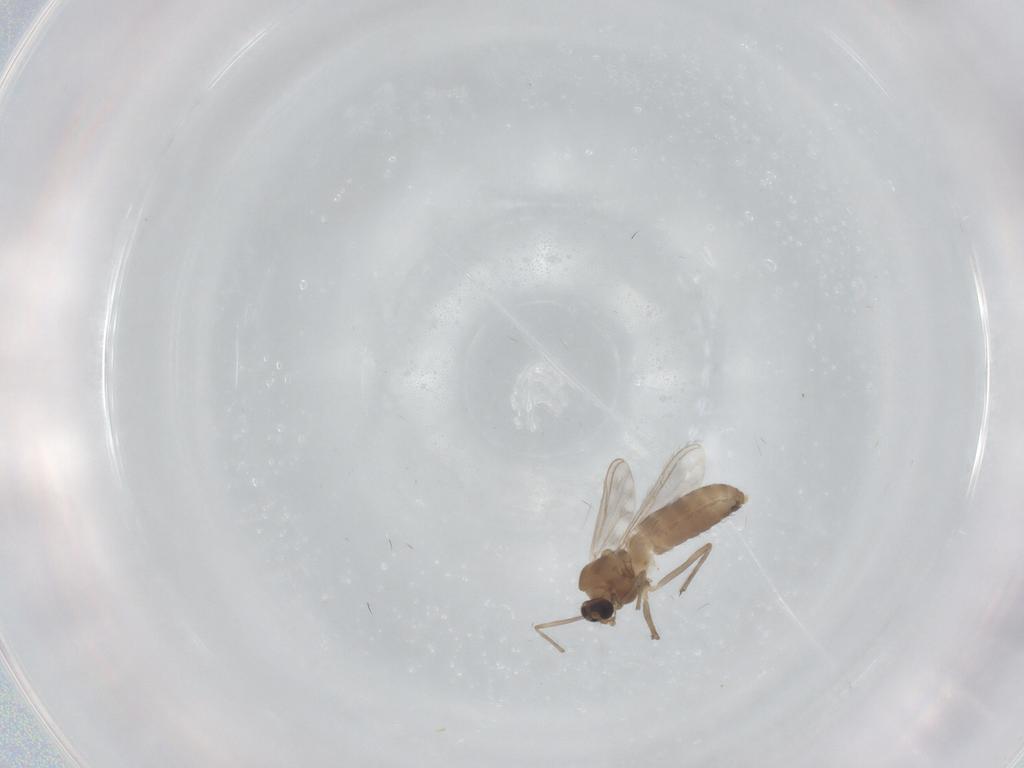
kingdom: Animalia
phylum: Arthropoda
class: Insecta
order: Diptera
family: Chironomidae
